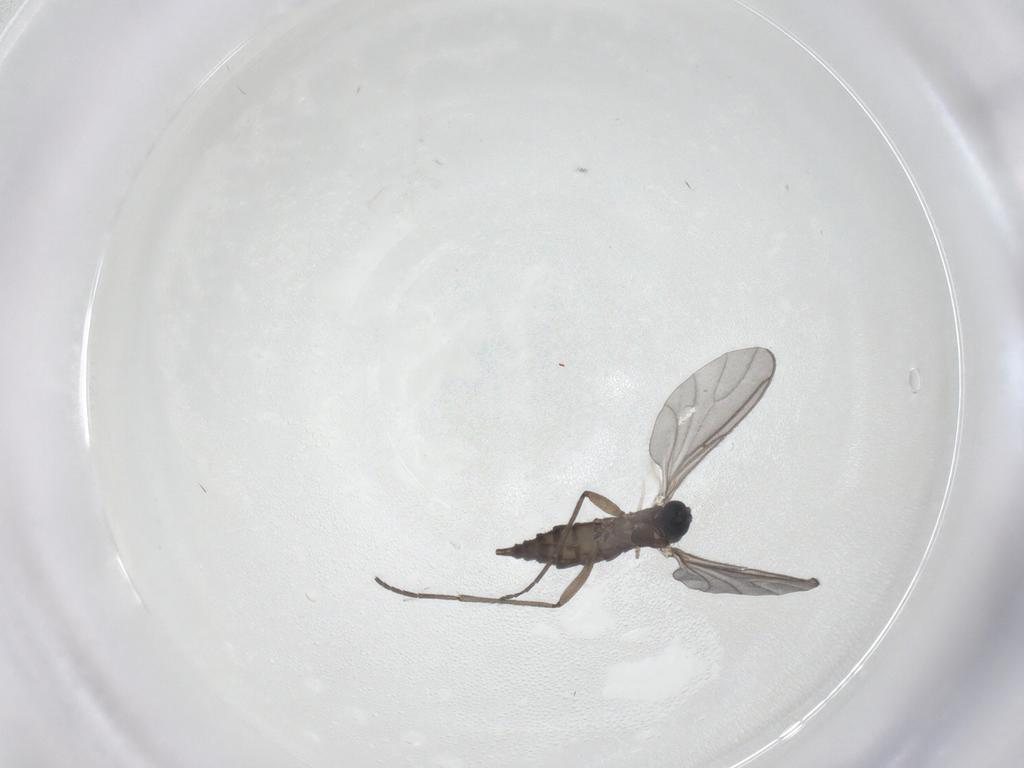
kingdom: Animalia
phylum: Arthropoda
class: Insecta
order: Diptera
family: Sciaridae
